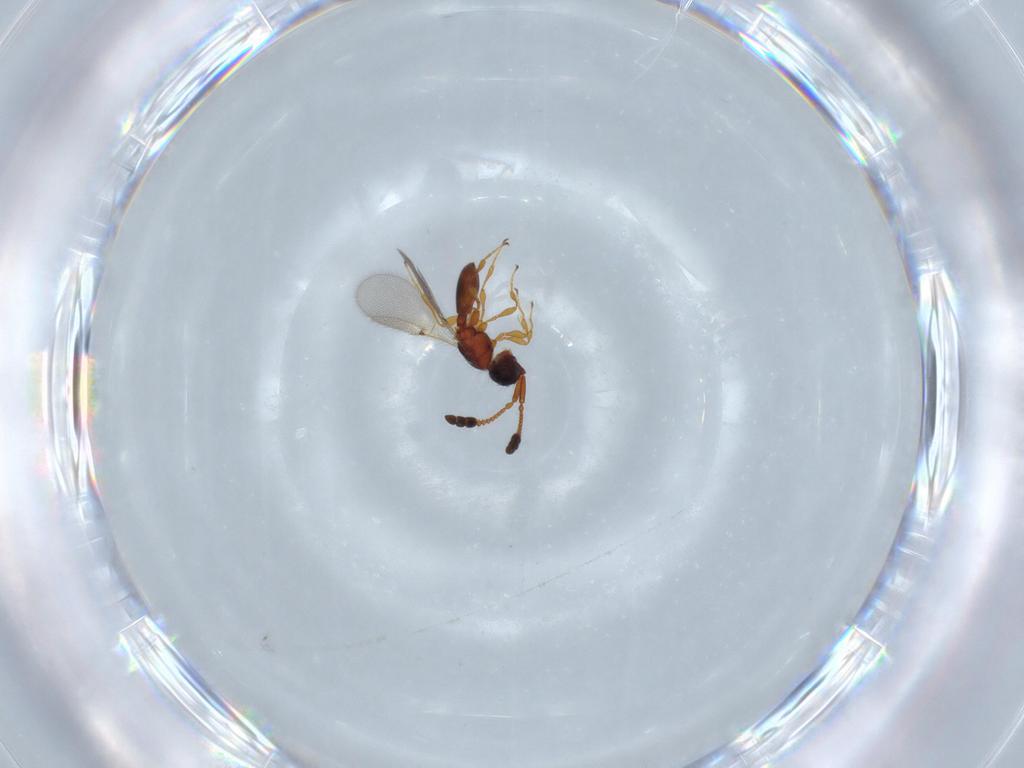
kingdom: Animalia
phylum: Arthropoda
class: Insecta
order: Hymenoptera
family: Diapriidae
